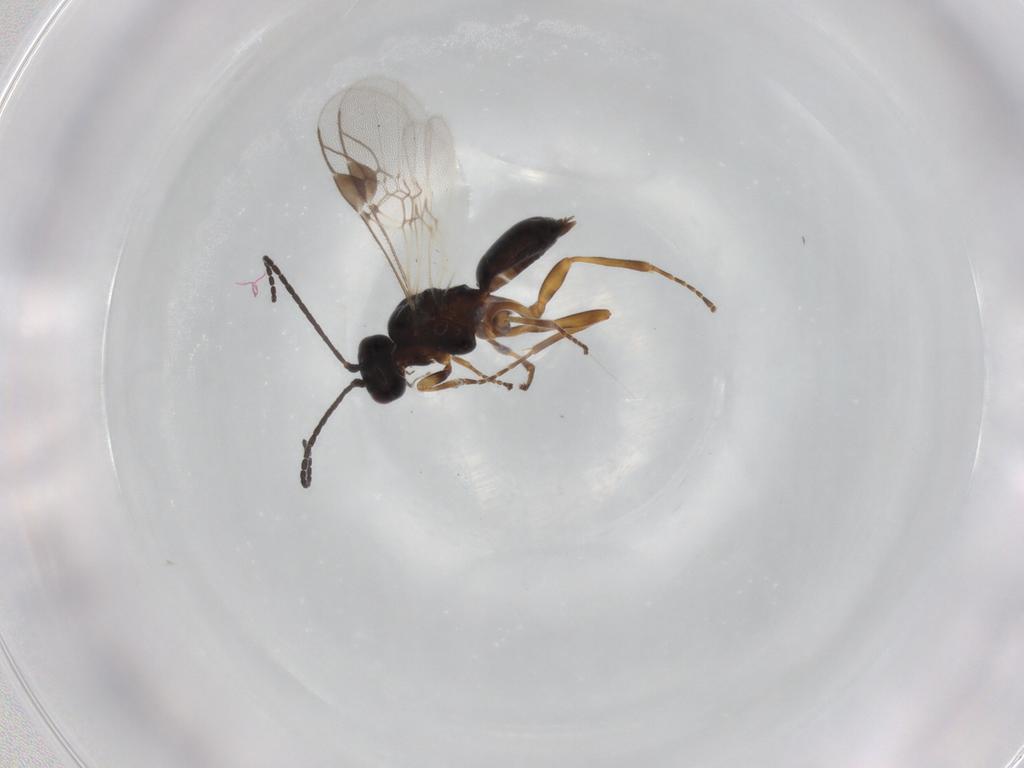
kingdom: Animalia
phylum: Arthropoda
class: Insecta
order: Hymenoptera
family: Braconidae
